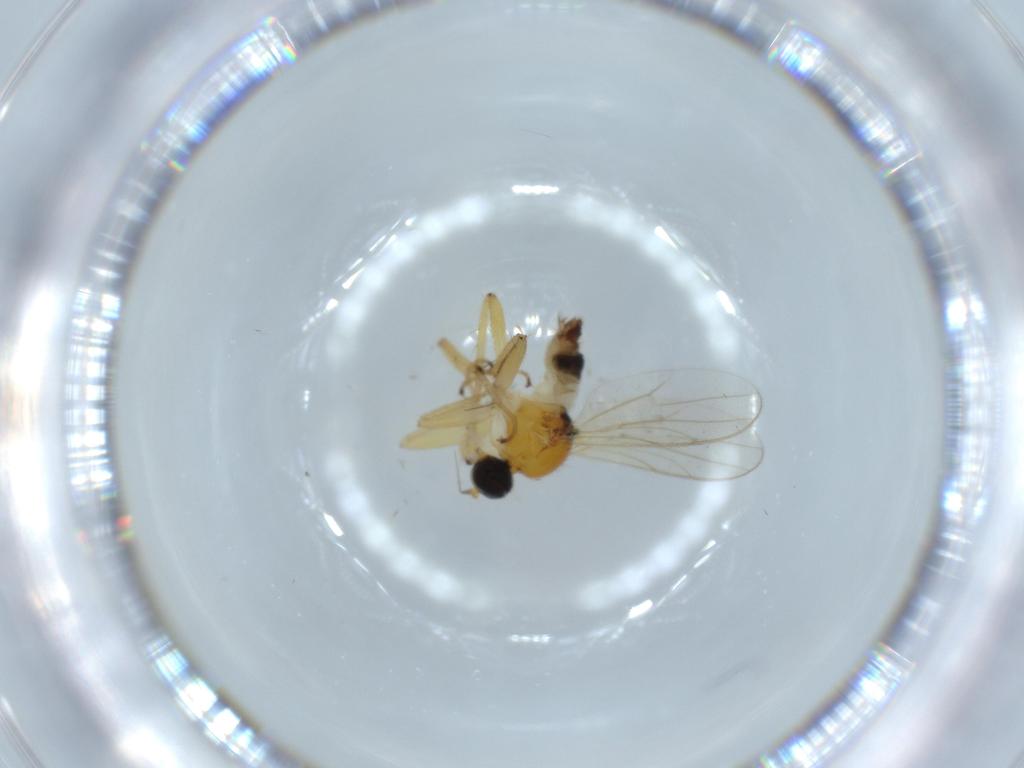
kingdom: Animalia
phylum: Arthropoda
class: Insecta
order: Diptera
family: Hybotidae
